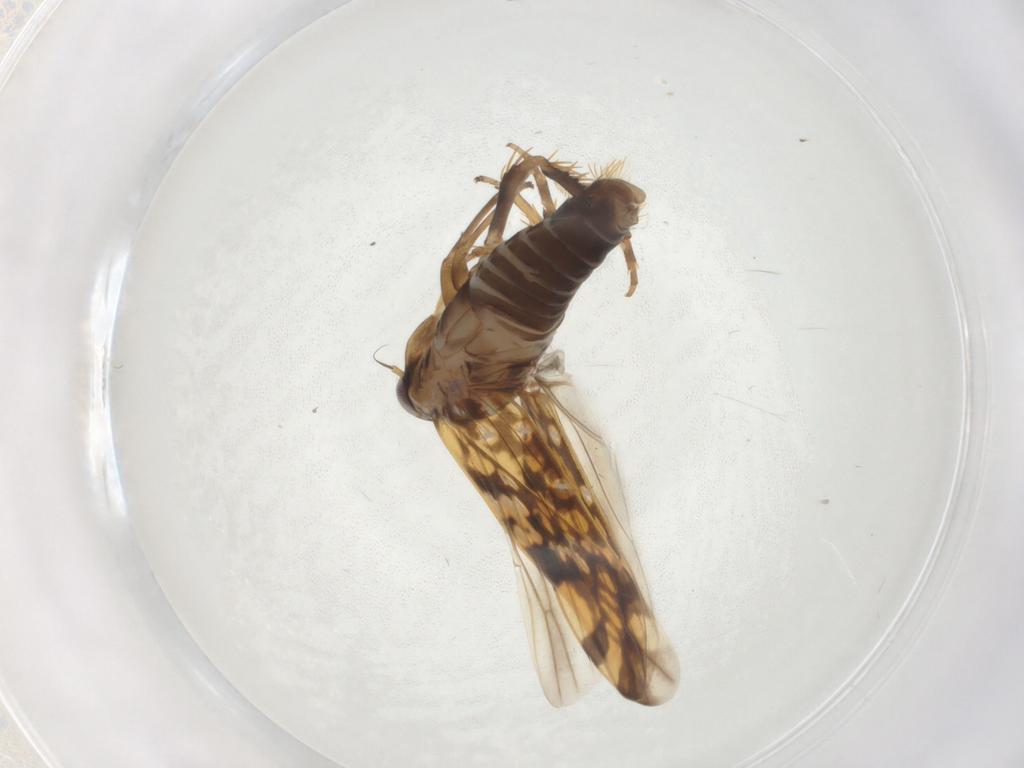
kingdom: Animalia
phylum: Arthropoda
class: Insecta
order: Hemiptera
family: Cicadellidae
